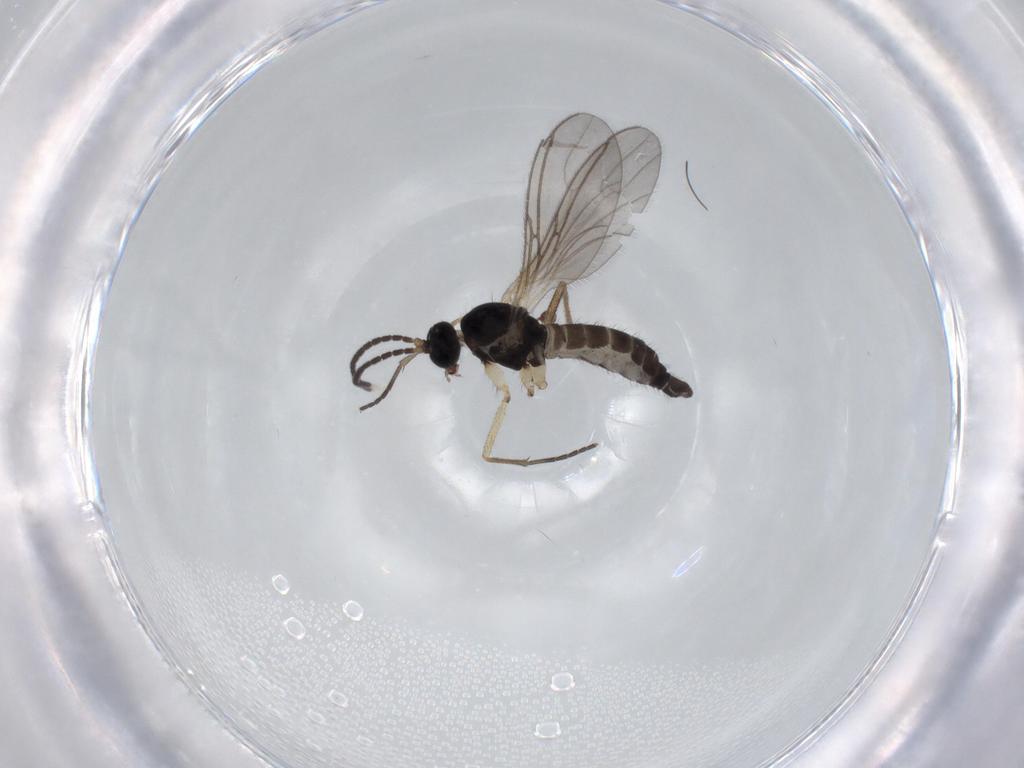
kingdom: Animalia
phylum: Arthropoda
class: Insecta
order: Diptera
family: Sciaridae
